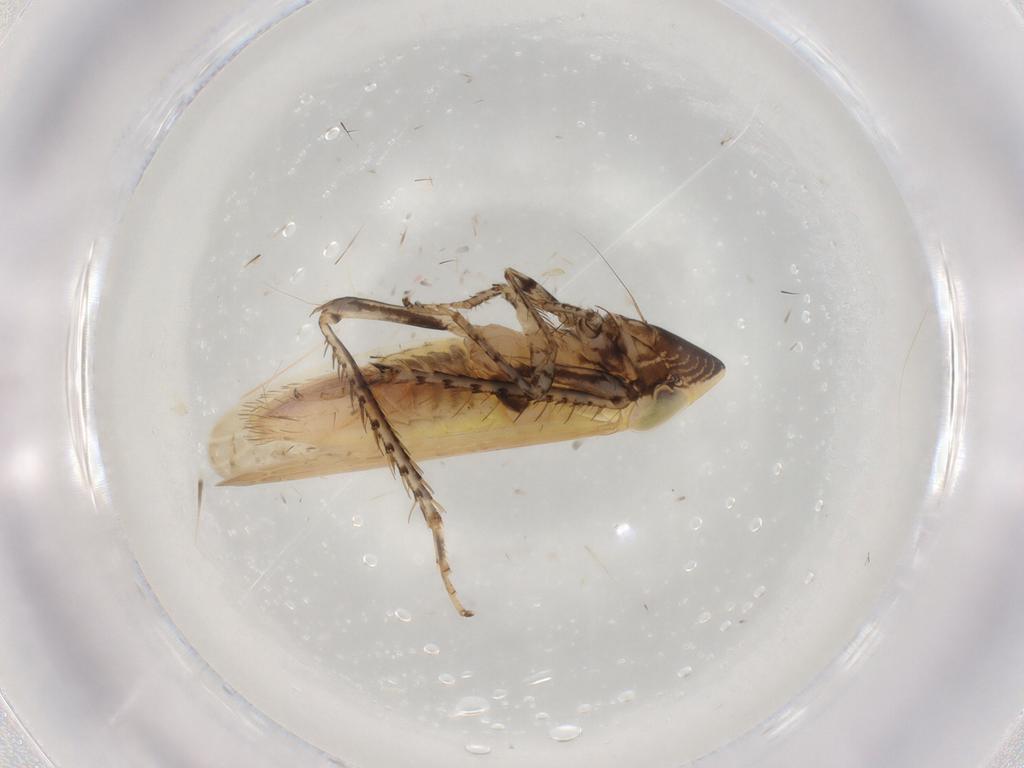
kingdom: Animalia
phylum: Arthropoda
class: Insecta
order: Hemiptera
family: Cicadellidae
